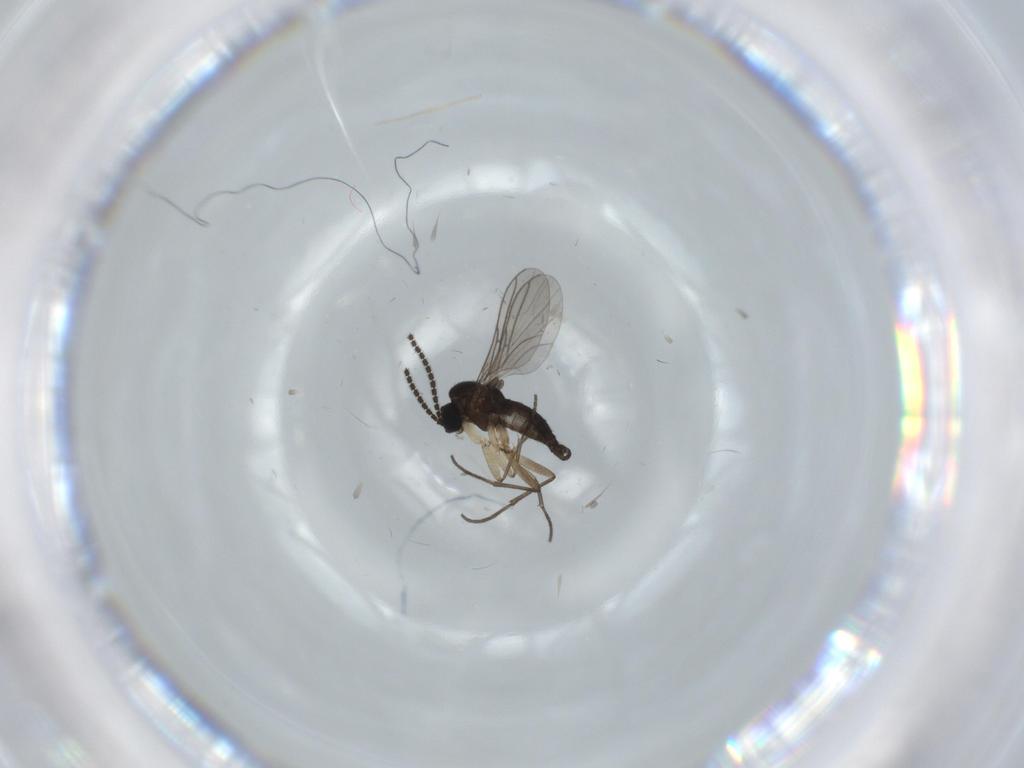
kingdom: Animalia
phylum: Arthropoda
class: Insecta
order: Diptera
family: Sciaridae
